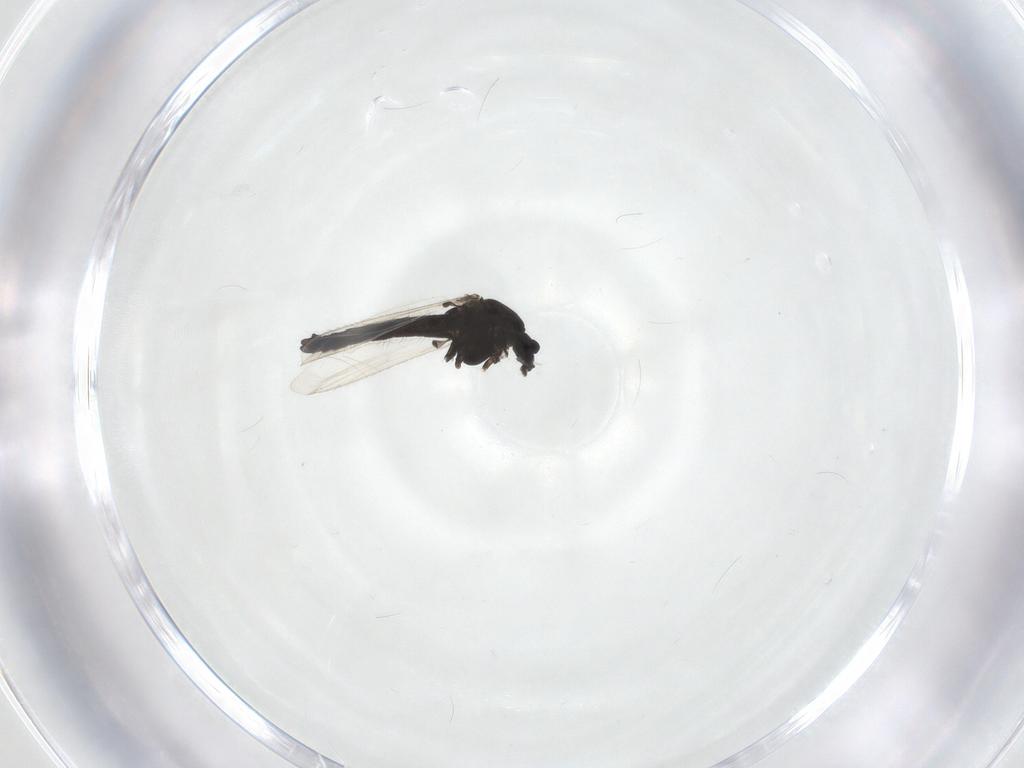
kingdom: Animalia
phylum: Arthropoda
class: Insecta
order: Diptera
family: Chironomidae
